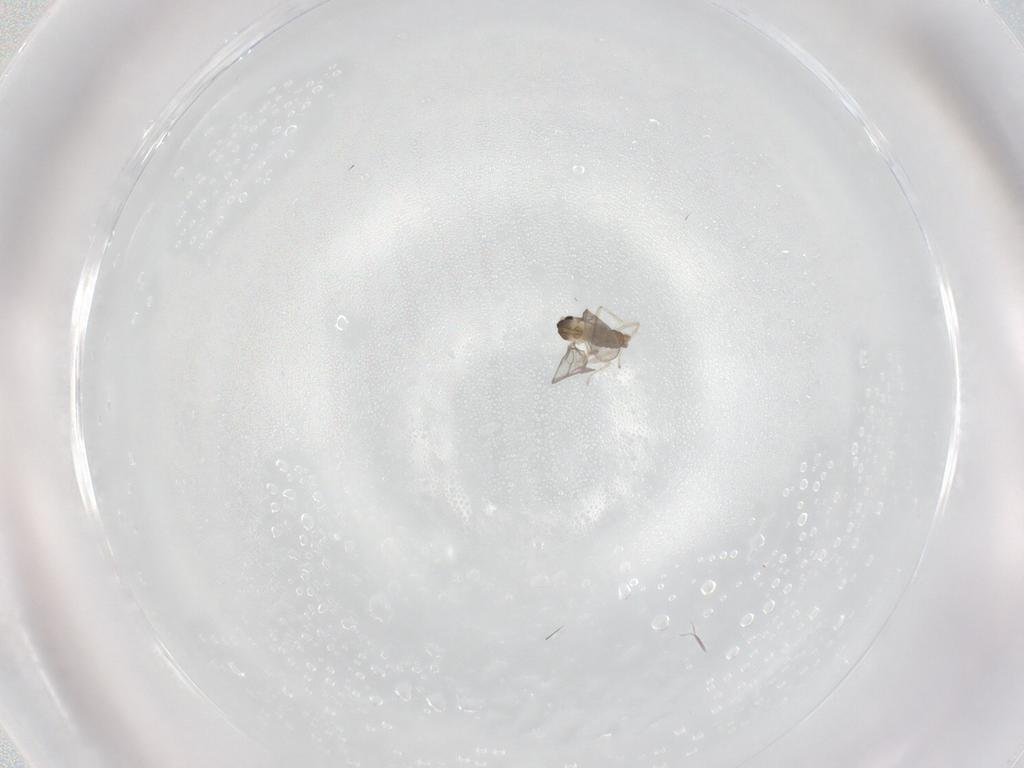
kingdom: Animalia
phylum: Arthropoda
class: Insecta
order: Diptera
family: Cecidomyiidae
